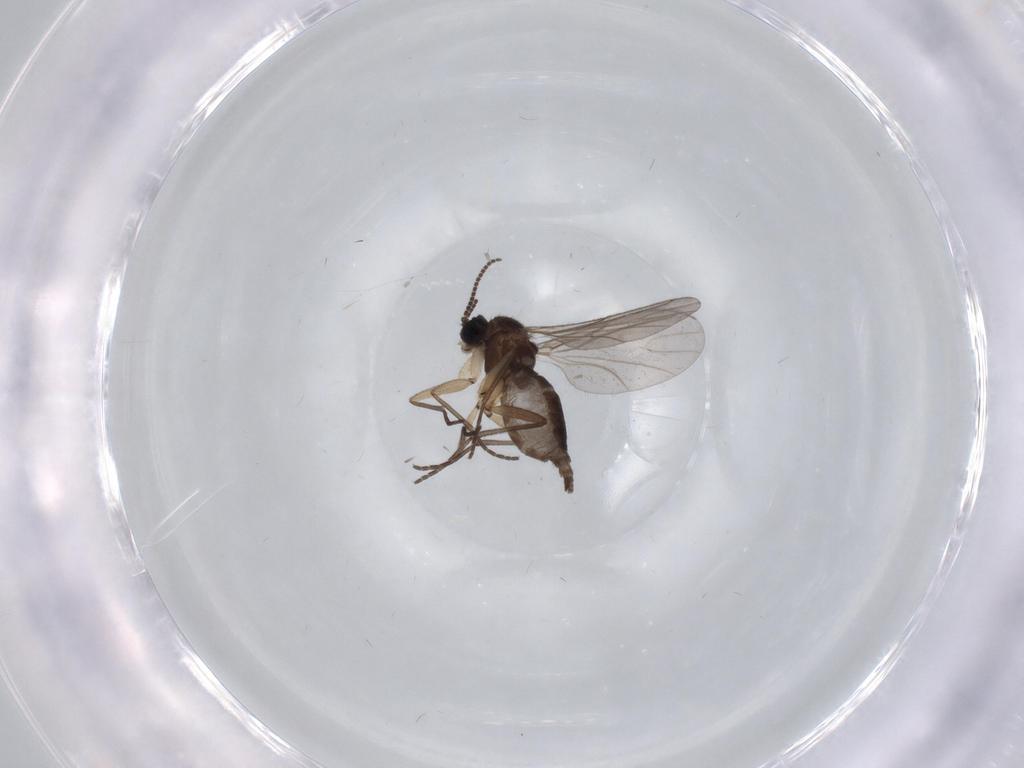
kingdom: Animalia
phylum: Arthropoda
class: Insecta
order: Diptera
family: Sciaridae
